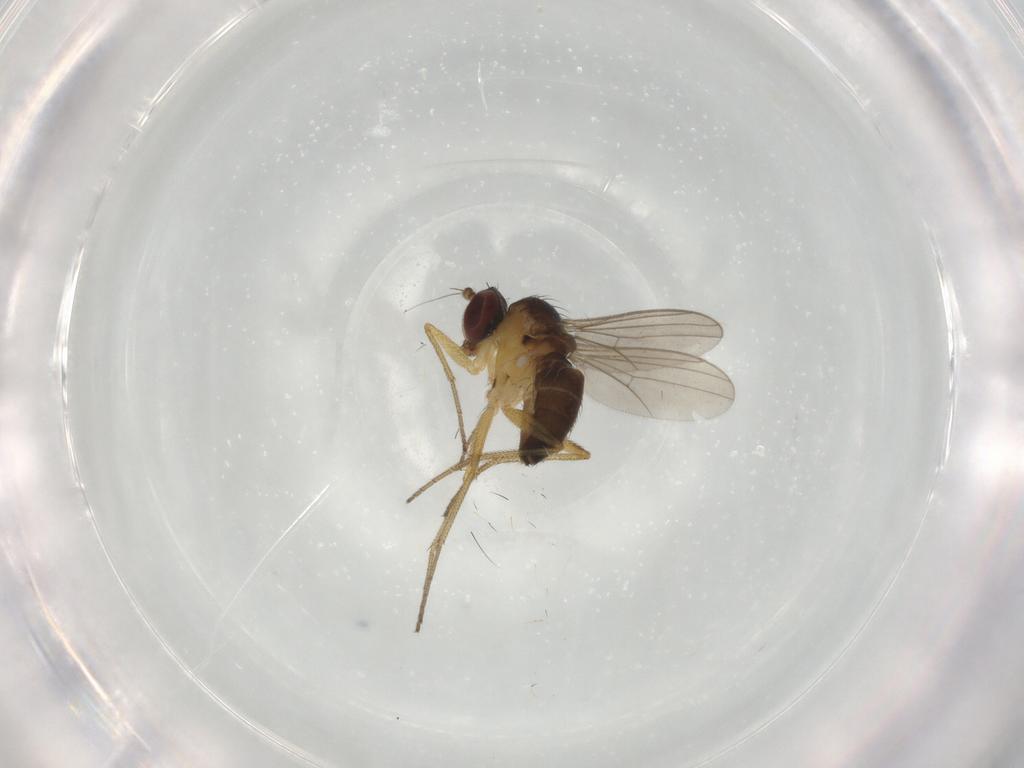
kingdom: Animalia
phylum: Arthropoda
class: Insecta
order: Diptera
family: Dolichopodidae
